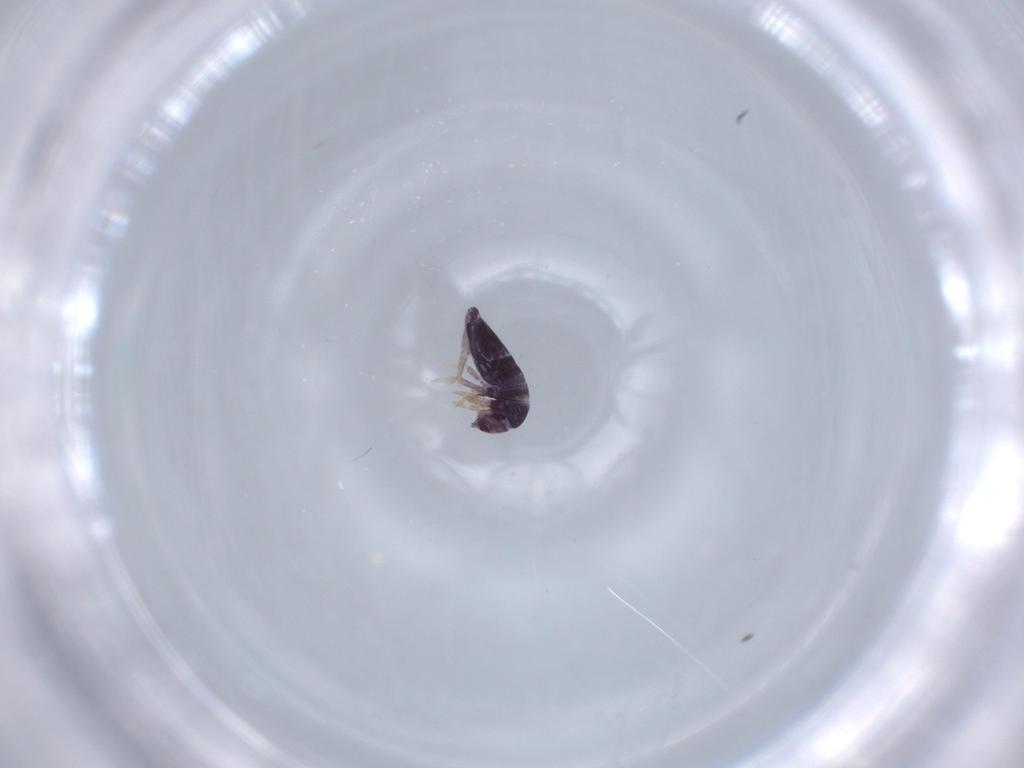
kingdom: Animalia
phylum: Arthropoda
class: Collembola
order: Entomobryomorpha
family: Entomobryidae
